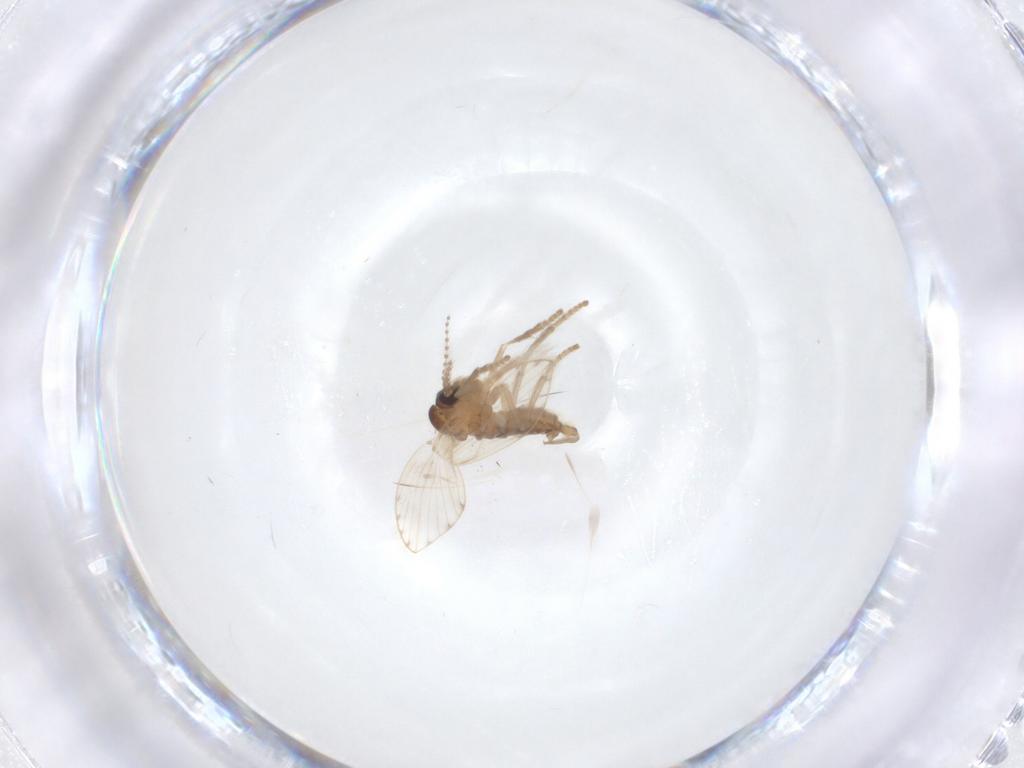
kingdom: Animalia
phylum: Arthropoda
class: Insecta
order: Diptera
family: Psychodidae
